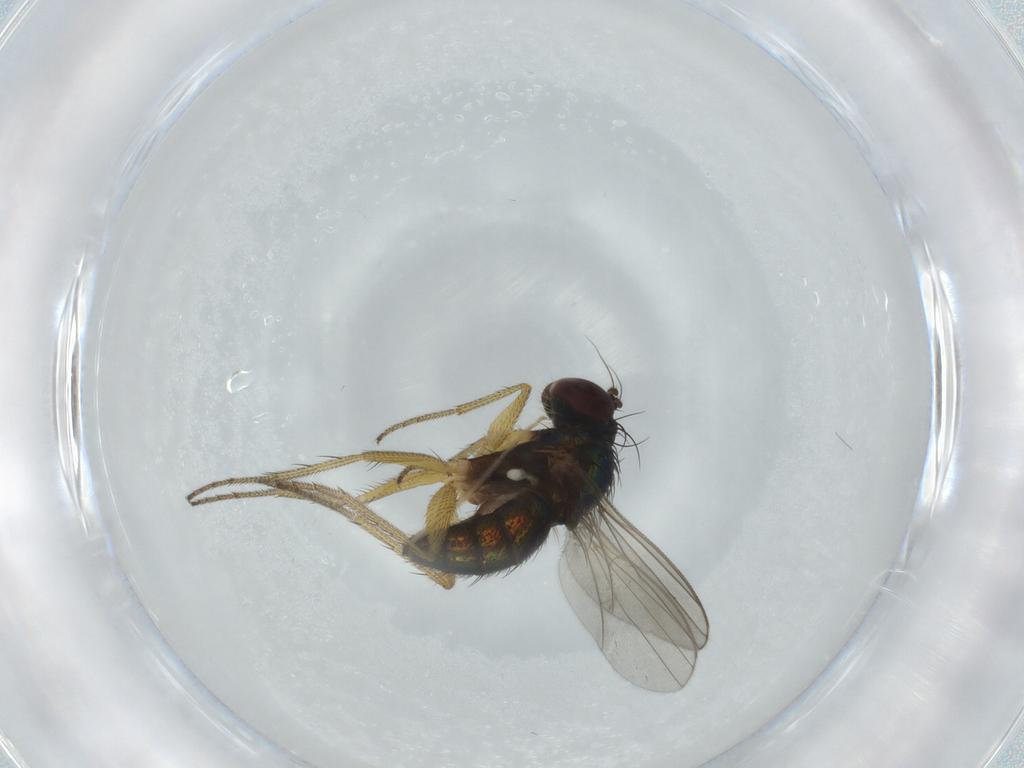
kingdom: Animalia
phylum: Arthropoda
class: Insecta
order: Diptera
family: Dolichopodidae
